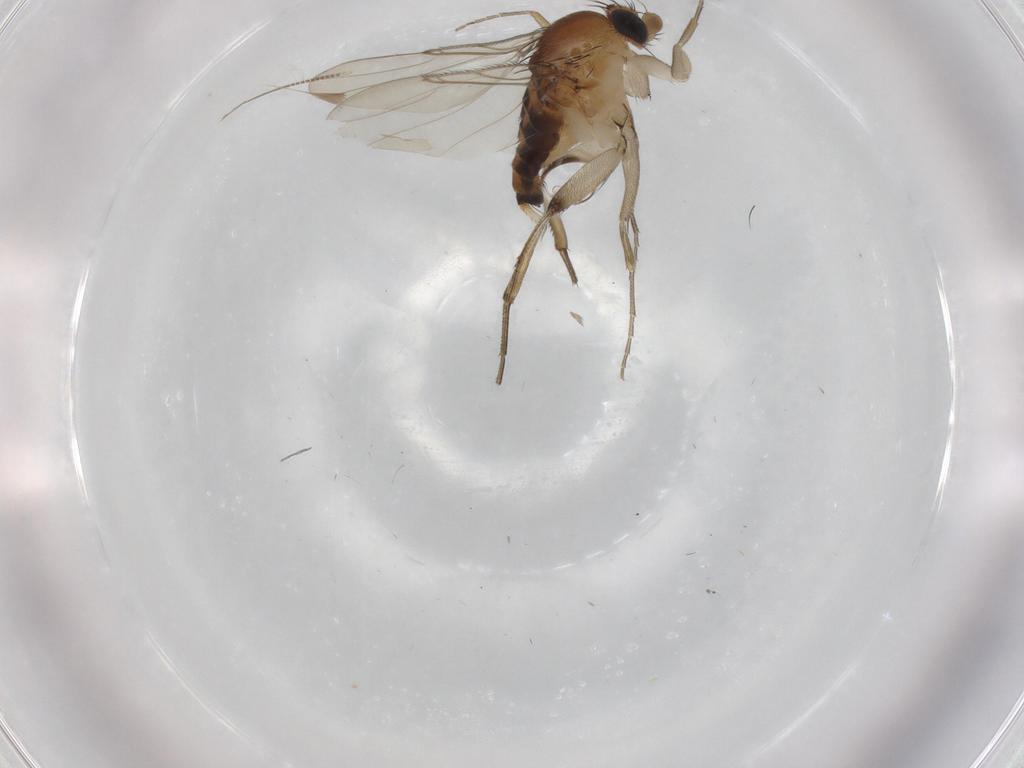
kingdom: Animalia
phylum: Arthropoda
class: Insecta
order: Diptera
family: Phoridae
